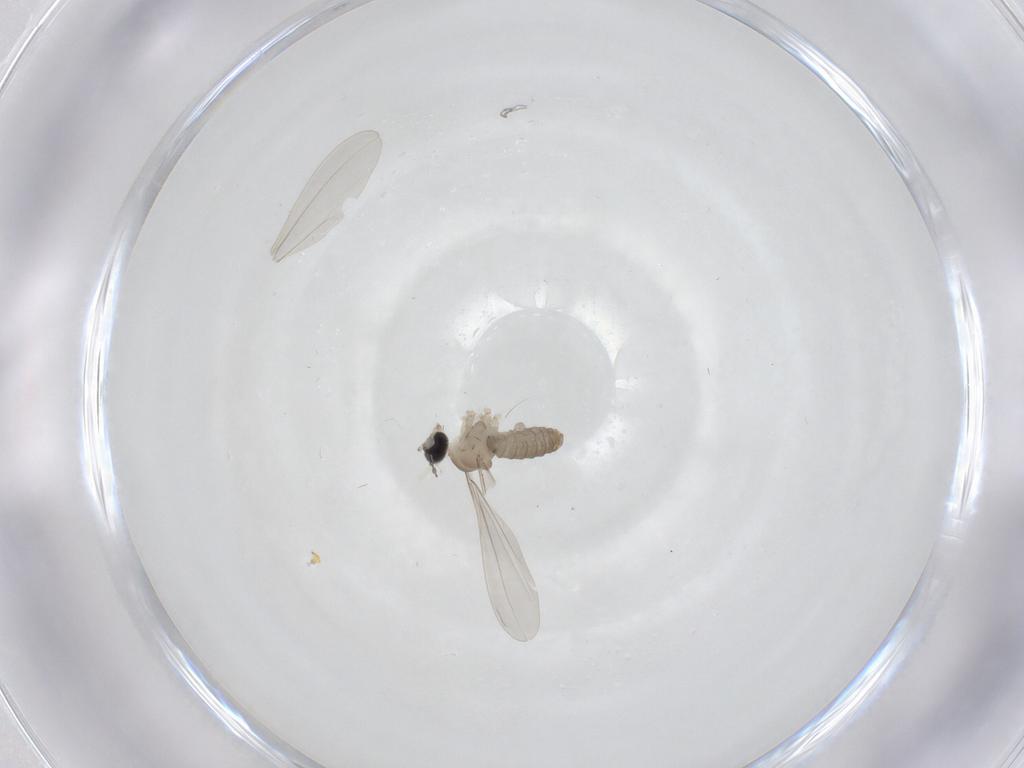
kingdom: Animalia
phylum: Arthropoda
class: Insecta
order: Diptera
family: Cecidomyiidae
